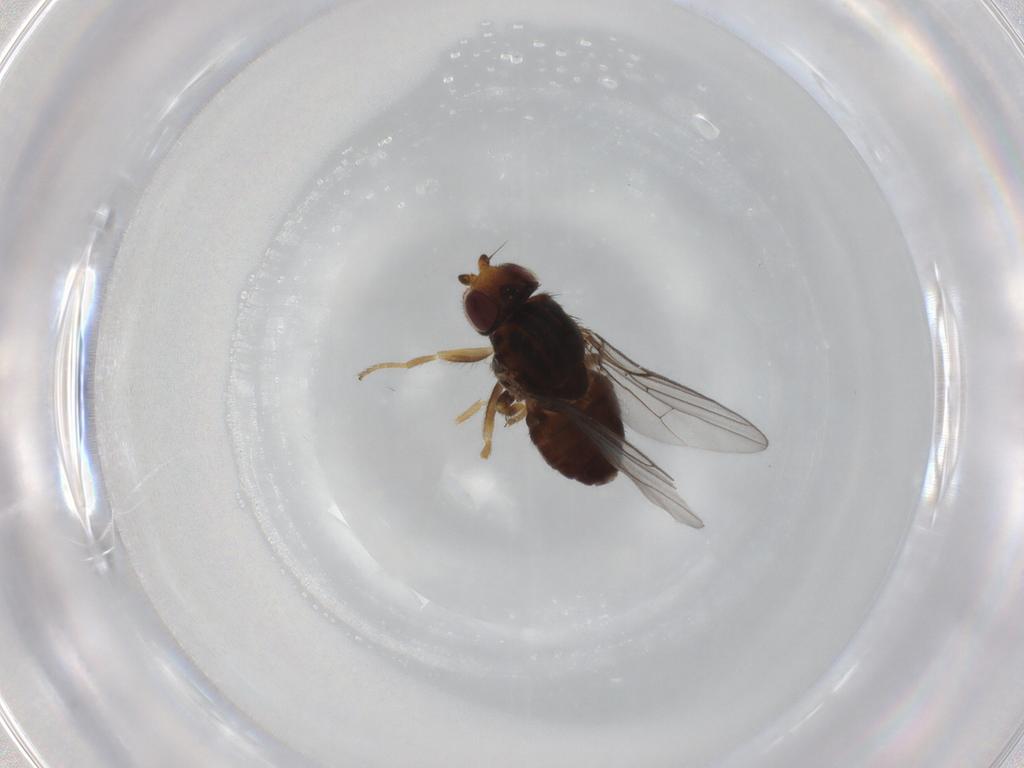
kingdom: Animalia
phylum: Arthropoda
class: Insecta
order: Diptera
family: Chloropidae
